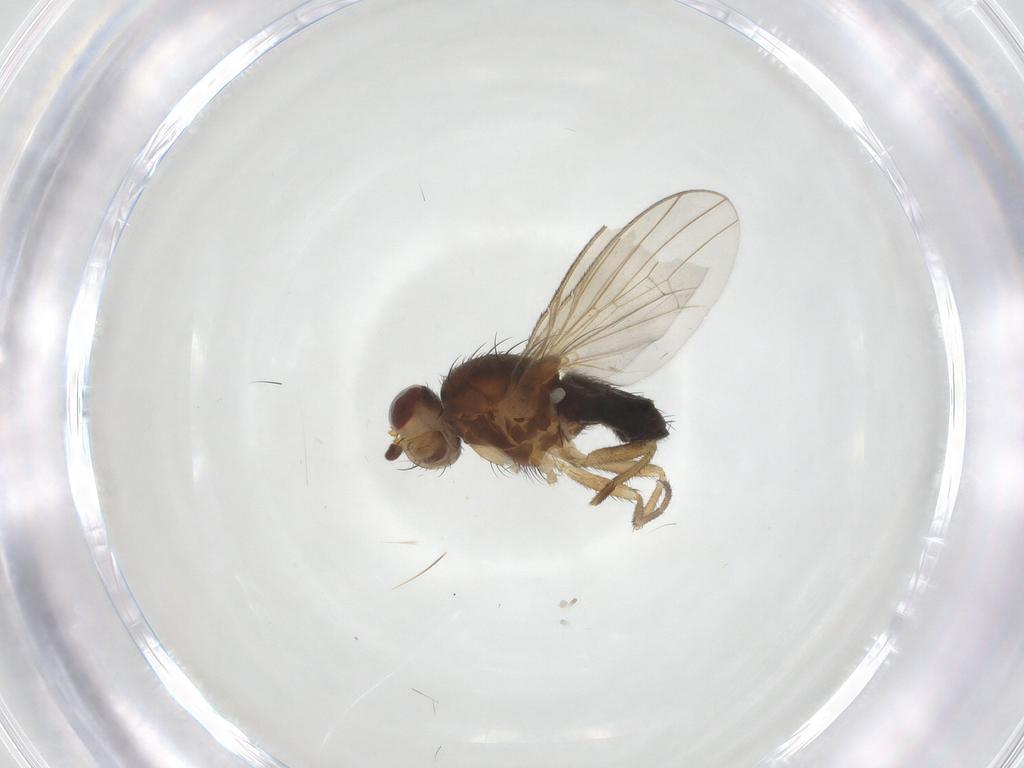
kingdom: Animalia
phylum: Arthropoda
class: Insecta
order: Diptera
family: Heleomyzidae
